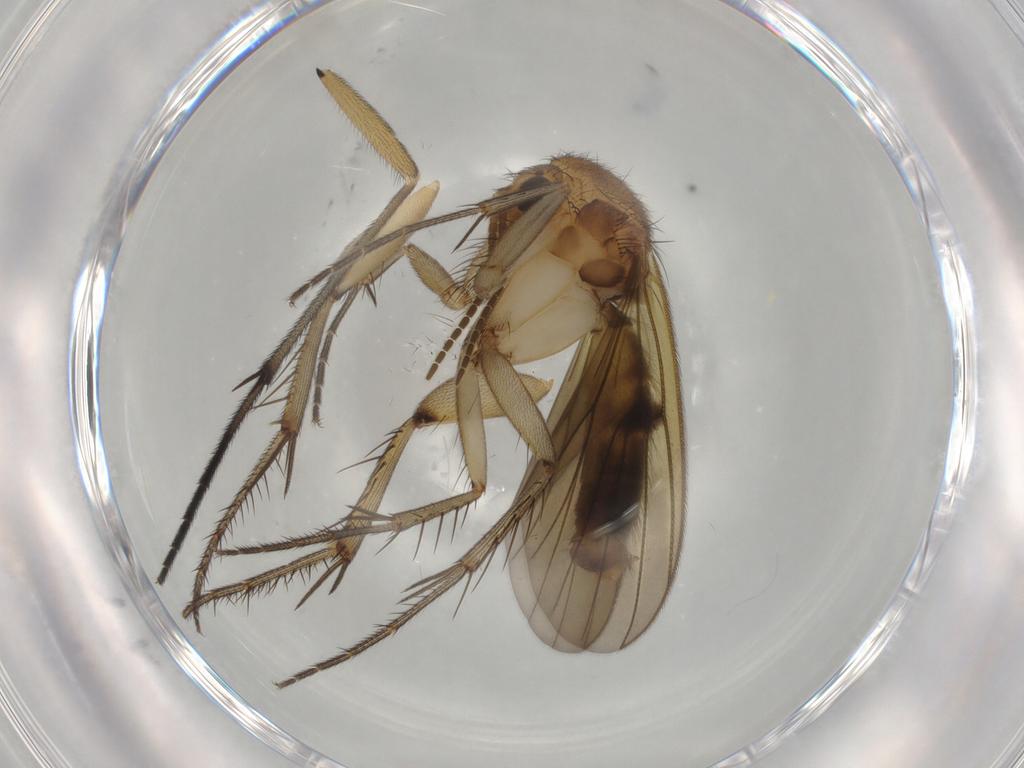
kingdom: Animalia
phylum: Arthropoda
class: Insecta
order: Diptera
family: Mycetophilidae
